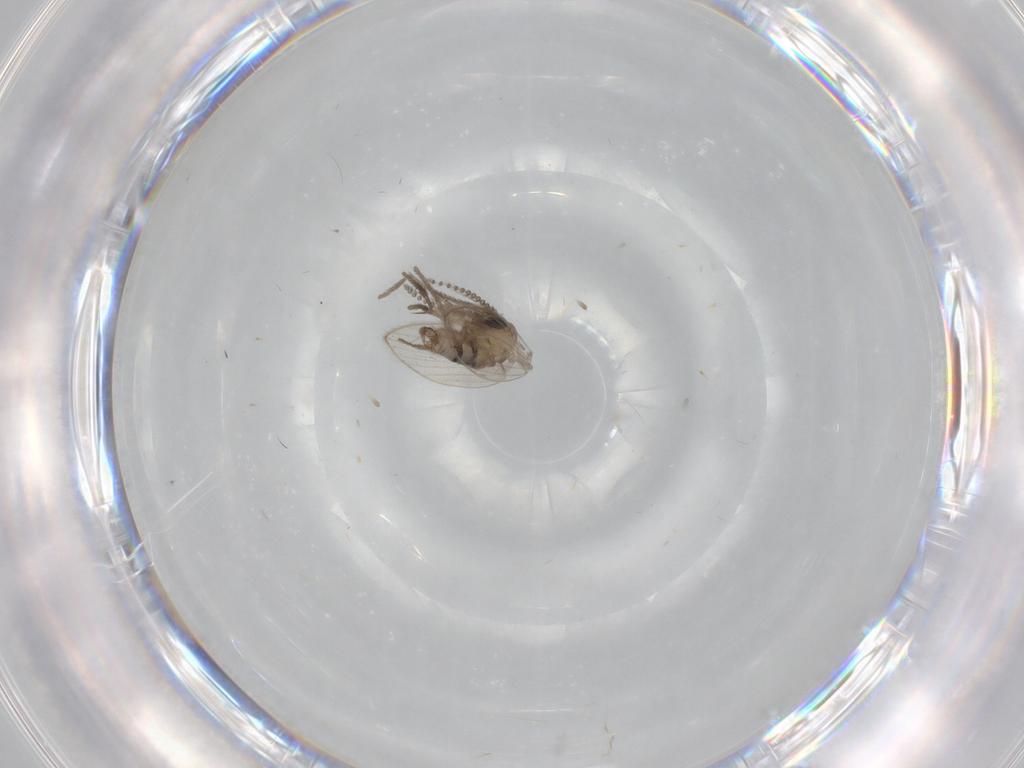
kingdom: Animalia
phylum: Arthropoda
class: Insecta
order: Diptera
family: Psychodidae
